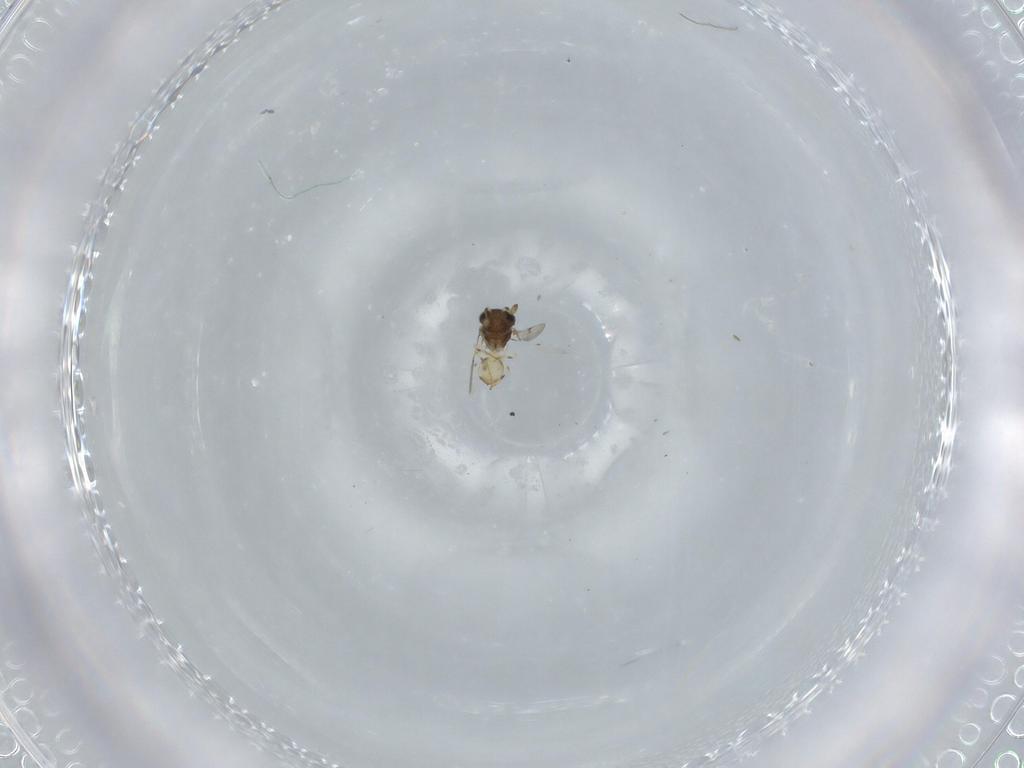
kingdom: Animalia
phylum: Arthropoda
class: Insecta
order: Hymenoptera
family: Scelionidae
